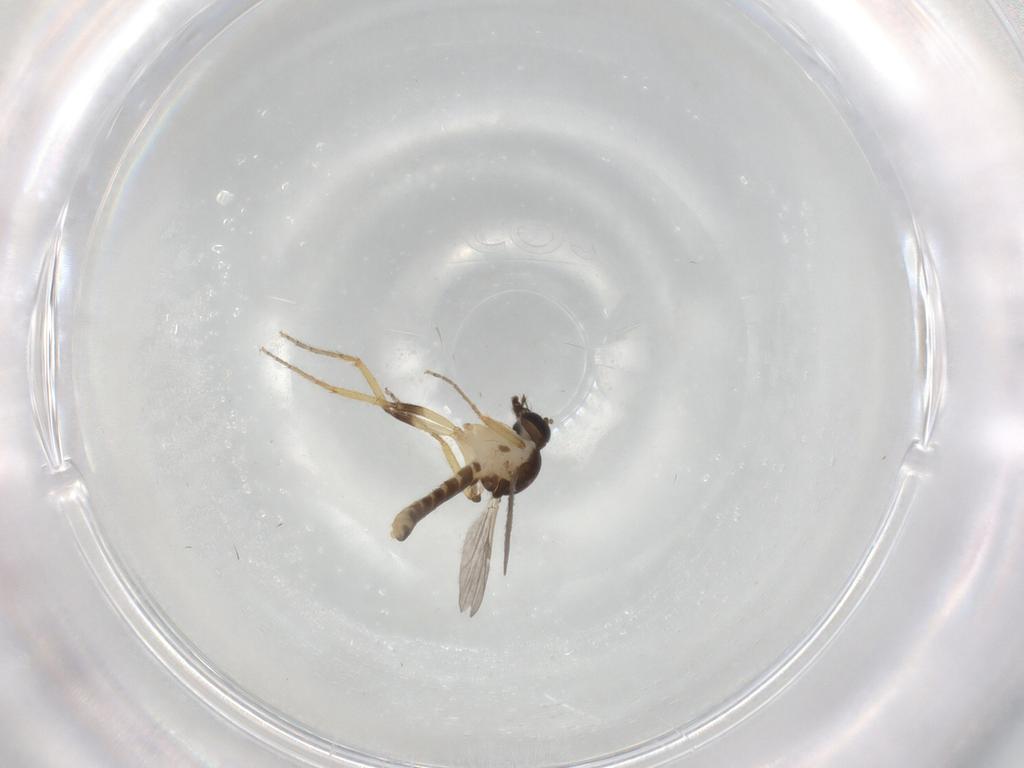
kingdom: Animalia
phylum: Arthropoda
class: Insecta
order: Diptera
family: Ceratopogonidae
